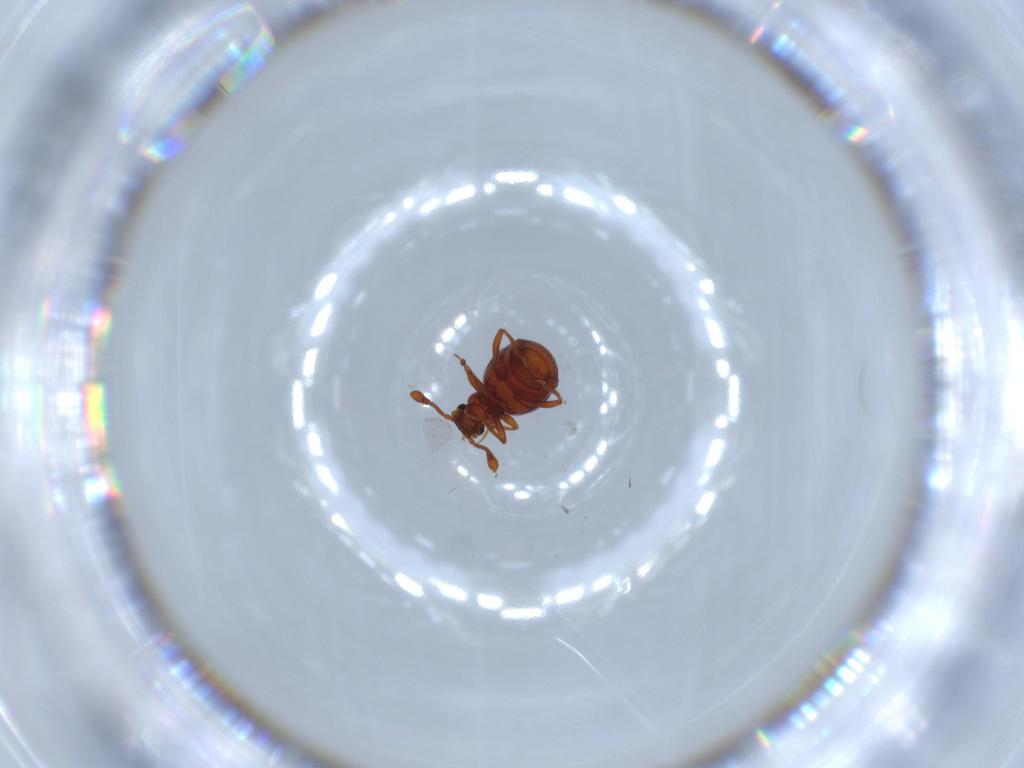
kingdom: Animalia
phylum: Arthropoda
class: Insecta
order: Coleoptera
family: Staphylinidae
